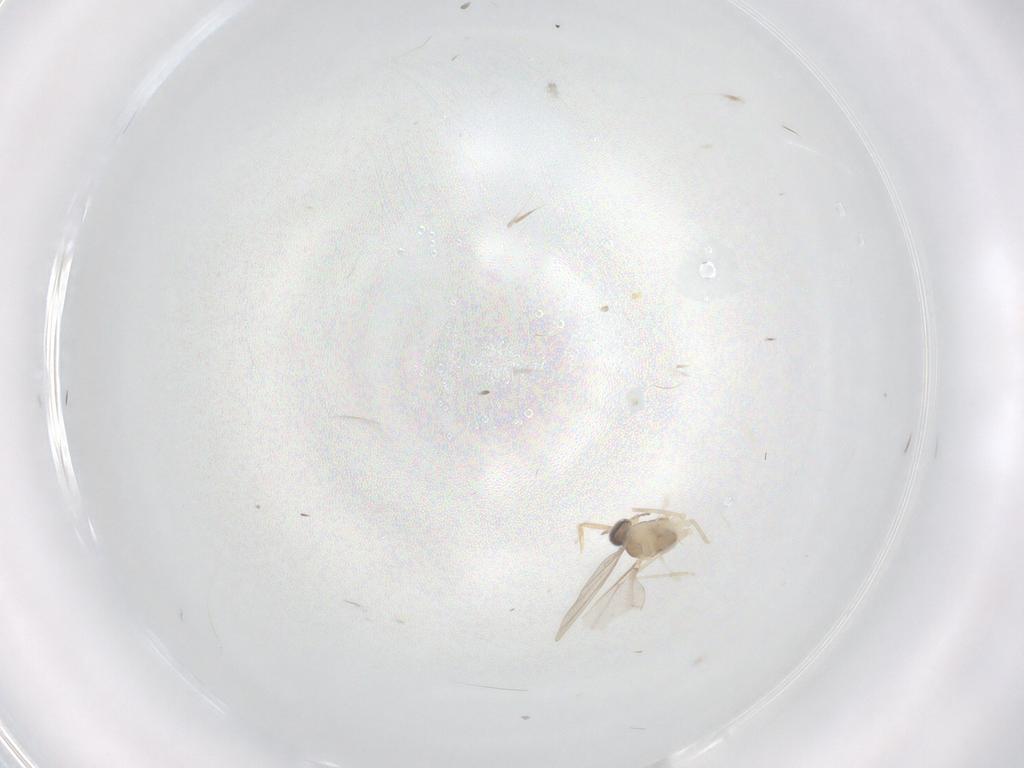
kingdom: Animalia
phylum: Arthropoda
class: Insecta
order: Diptera
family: Cecidomyiidae
